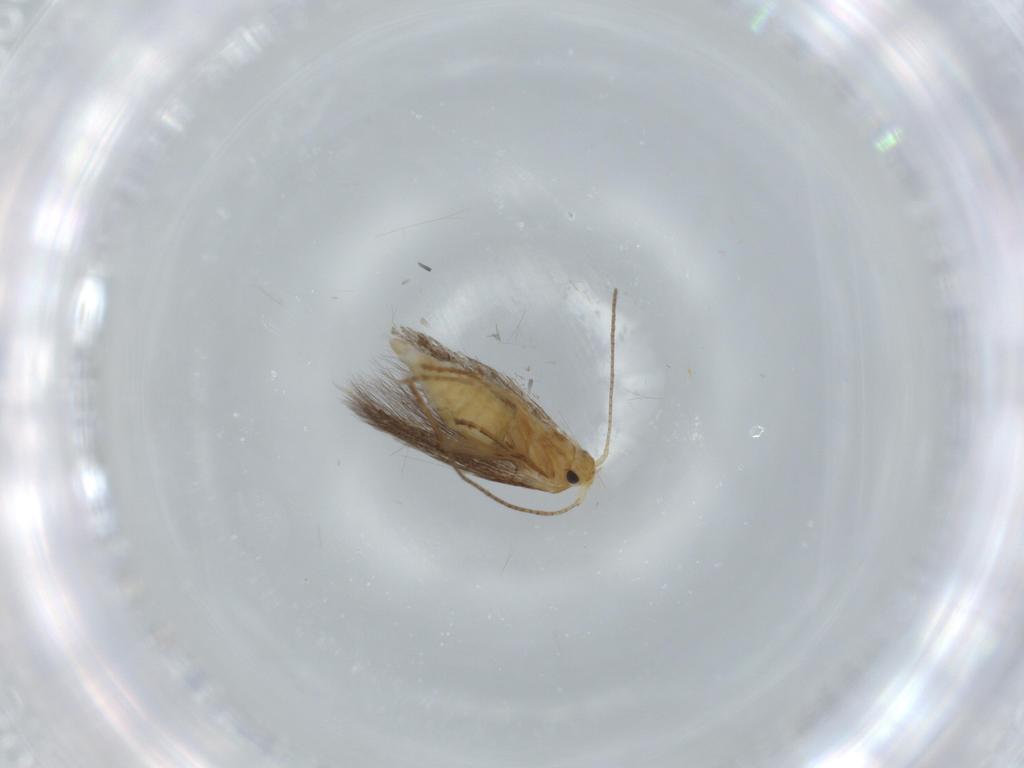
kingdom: Animalia
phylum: Arthropoda
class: Insecta
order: Lepidoptera
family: Bucculatricidae
